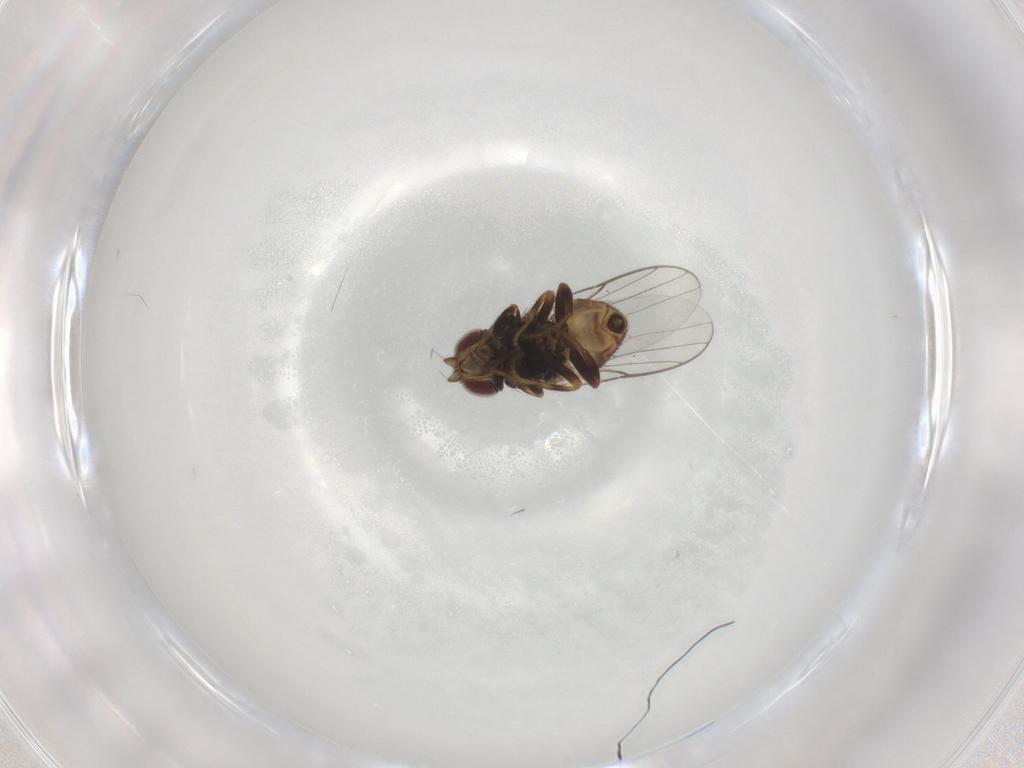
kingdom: Animalia
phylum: Arthropoda
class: Insecta
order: Diptera
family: Chloropidae
